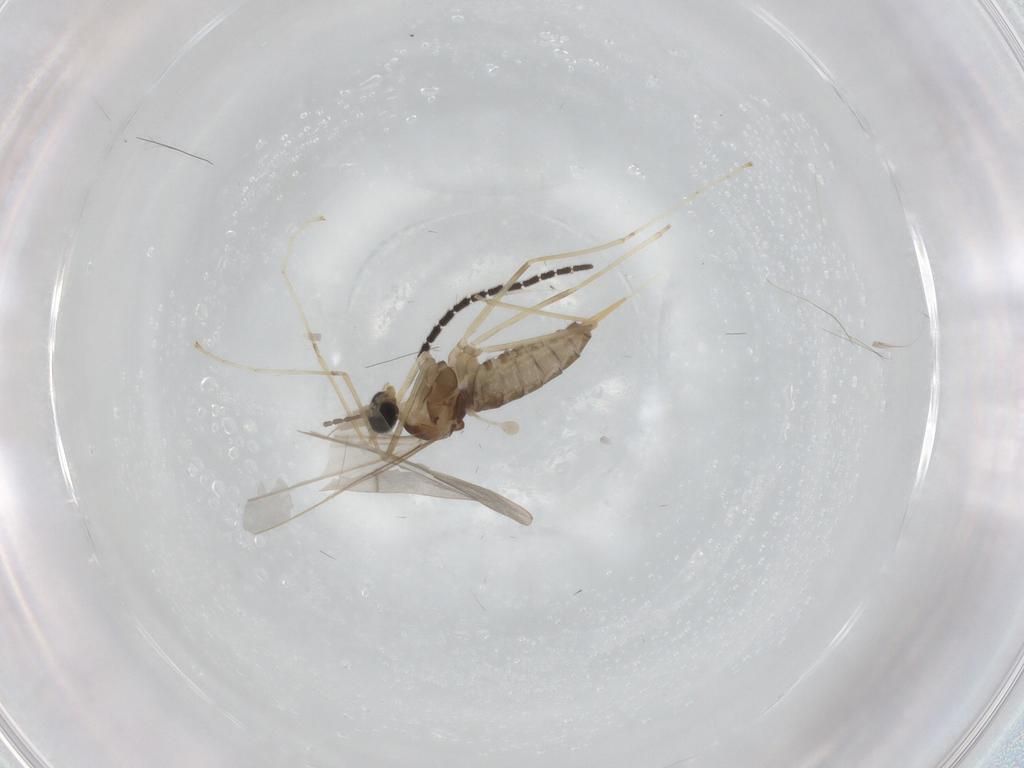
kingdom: Animalia
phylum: Arthropoda
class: Insecta
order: Diptera
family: Cecidomyiidae
